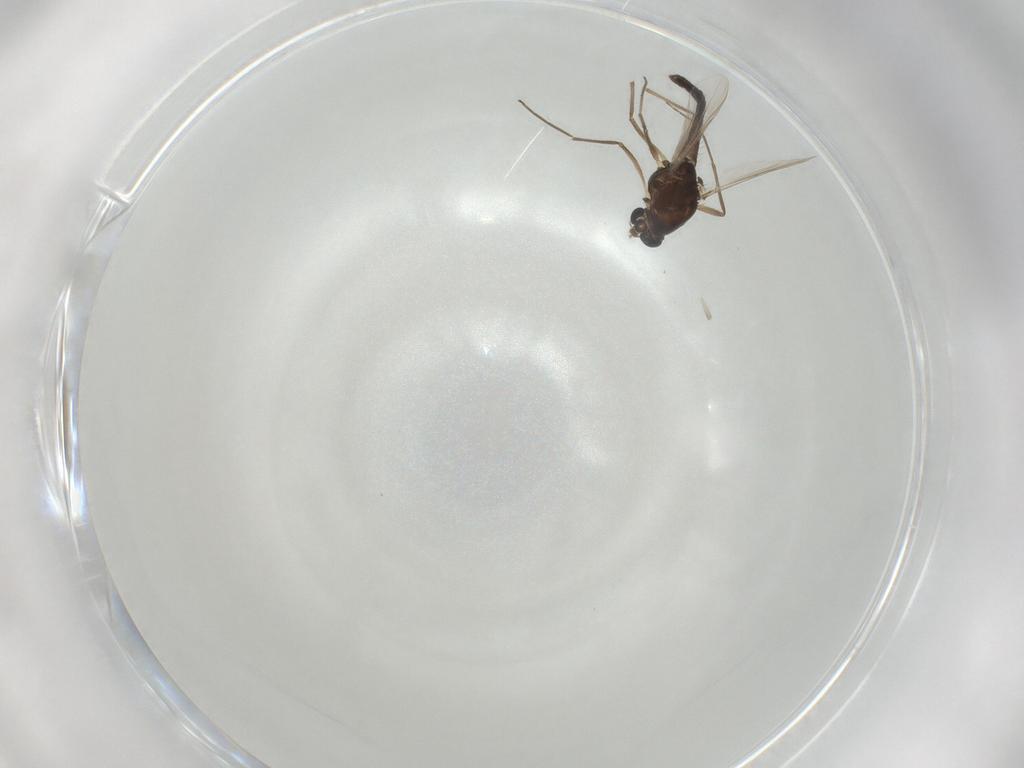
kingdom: Animalia
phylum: Arthropoda
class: Insecta
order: Diptera
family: Chironomidae
